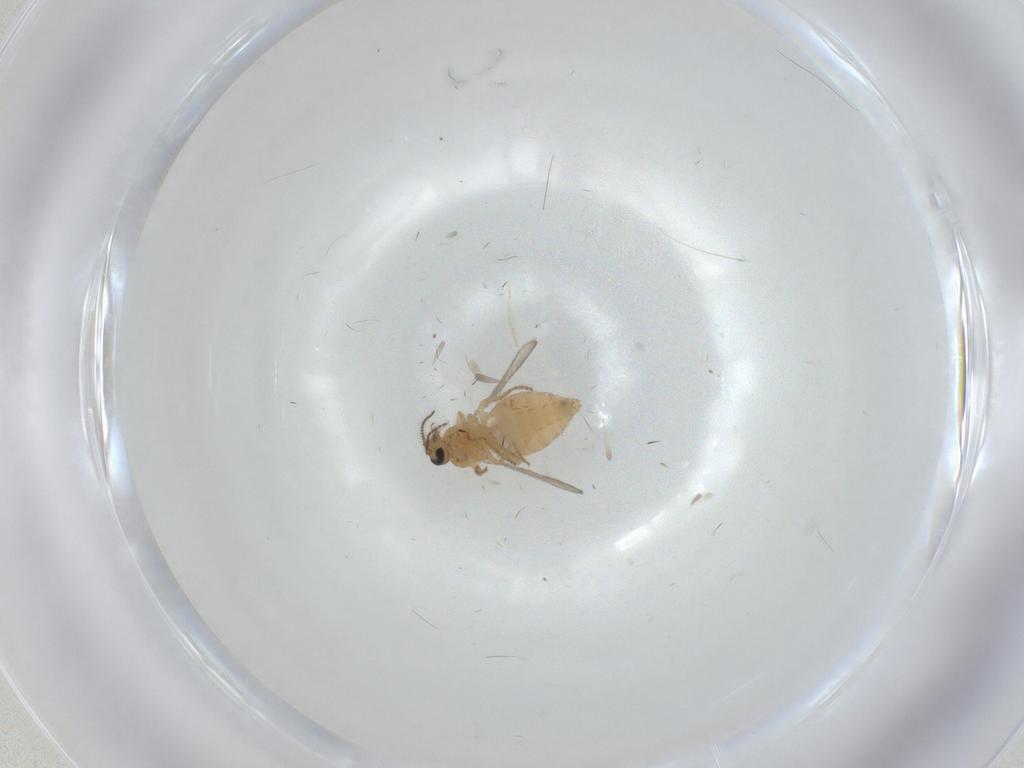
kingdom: Animalia
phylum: Arthropoda
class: Insecta
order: Diptera
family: Ceratopogonidae
